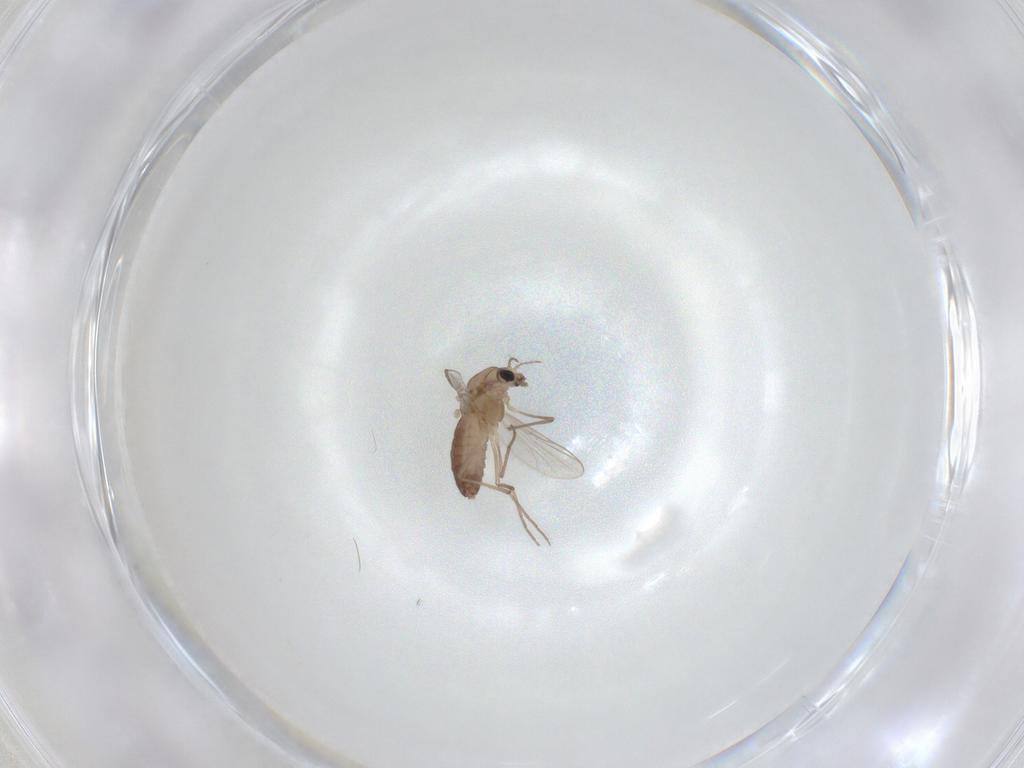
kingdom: Animalia
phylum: Arthropoda
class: Insecta
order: Diptera
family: Chironomidae
